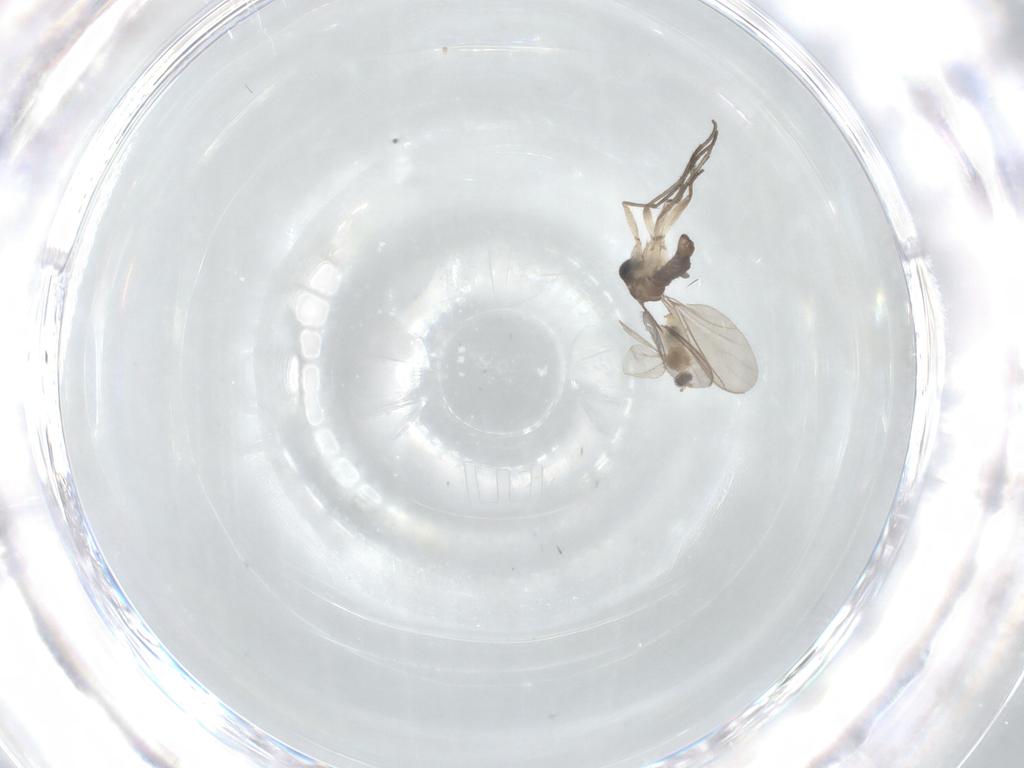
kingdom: Animalia
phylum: Arthropoda
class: Insecta
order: Diptera
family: Cecidomyiidae
